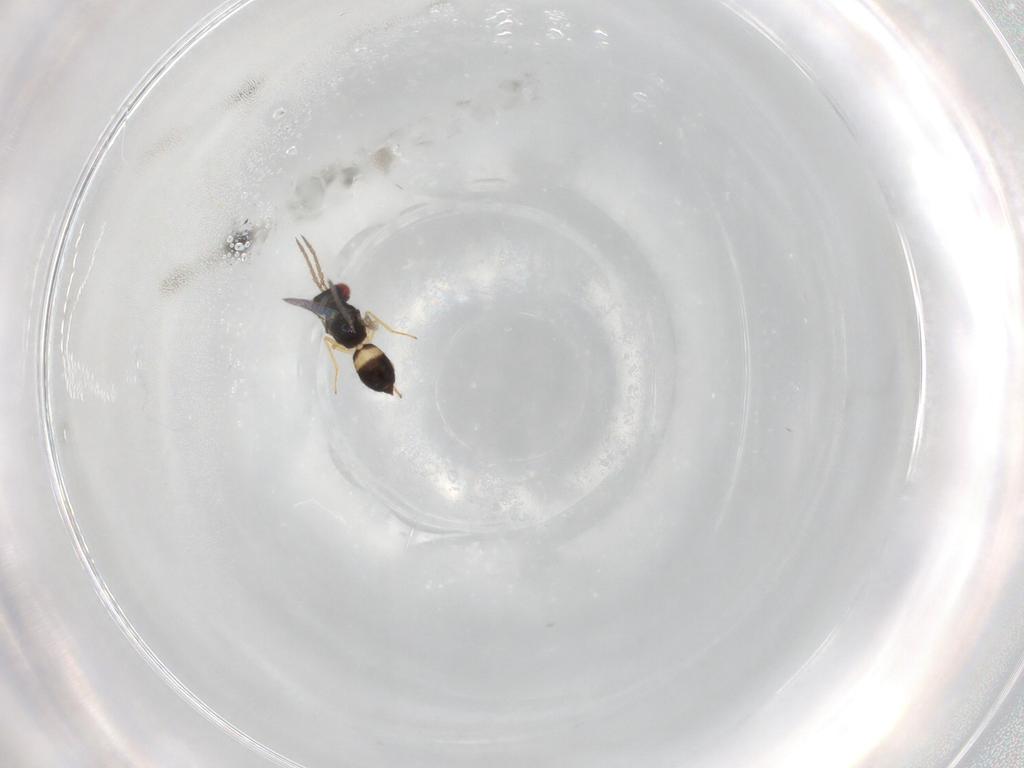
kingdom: Animalia
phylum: Arthropoda
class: Insecta
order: Hymenoptera
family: Eulophidae
